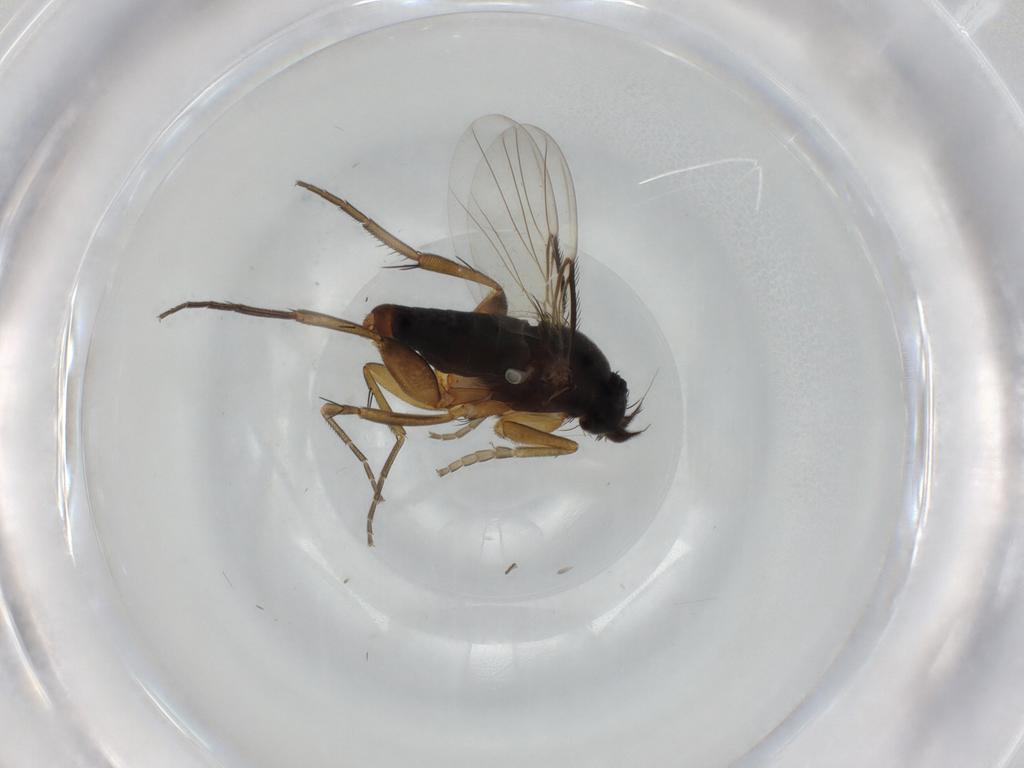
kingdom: Animalia
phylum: Arthropoda
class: Insecta
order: Diptera
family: Phoridae
